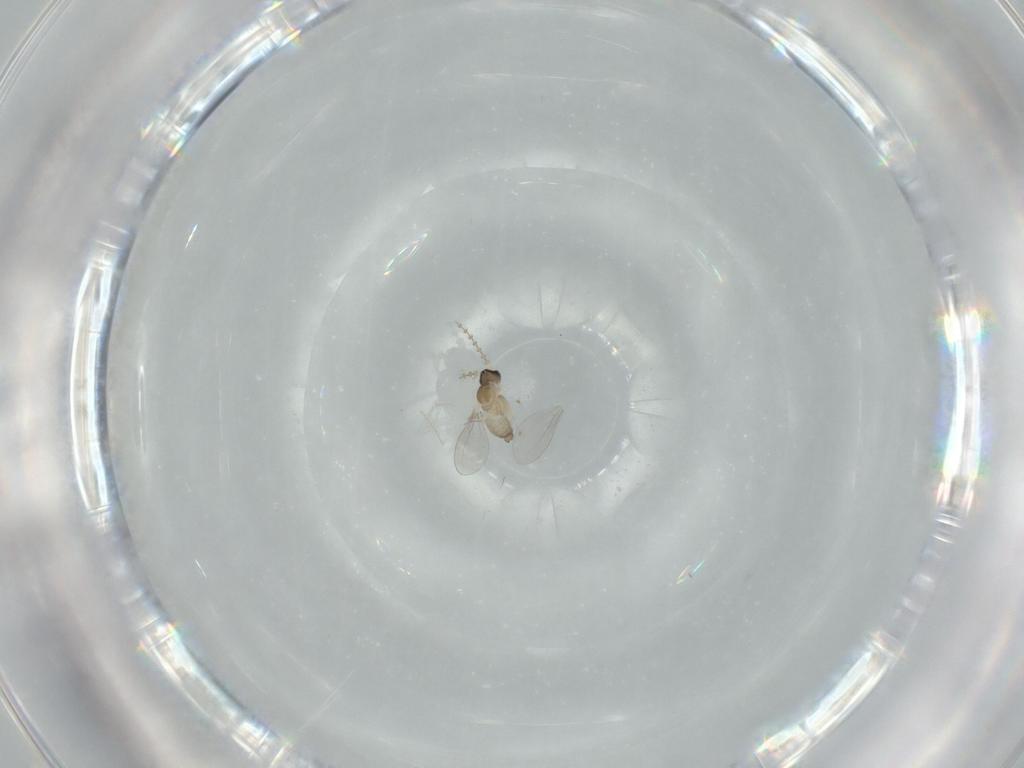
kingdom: Animalia
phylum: Arthropoda
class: Insecta
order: Diptera
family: Cecidomyiidae
